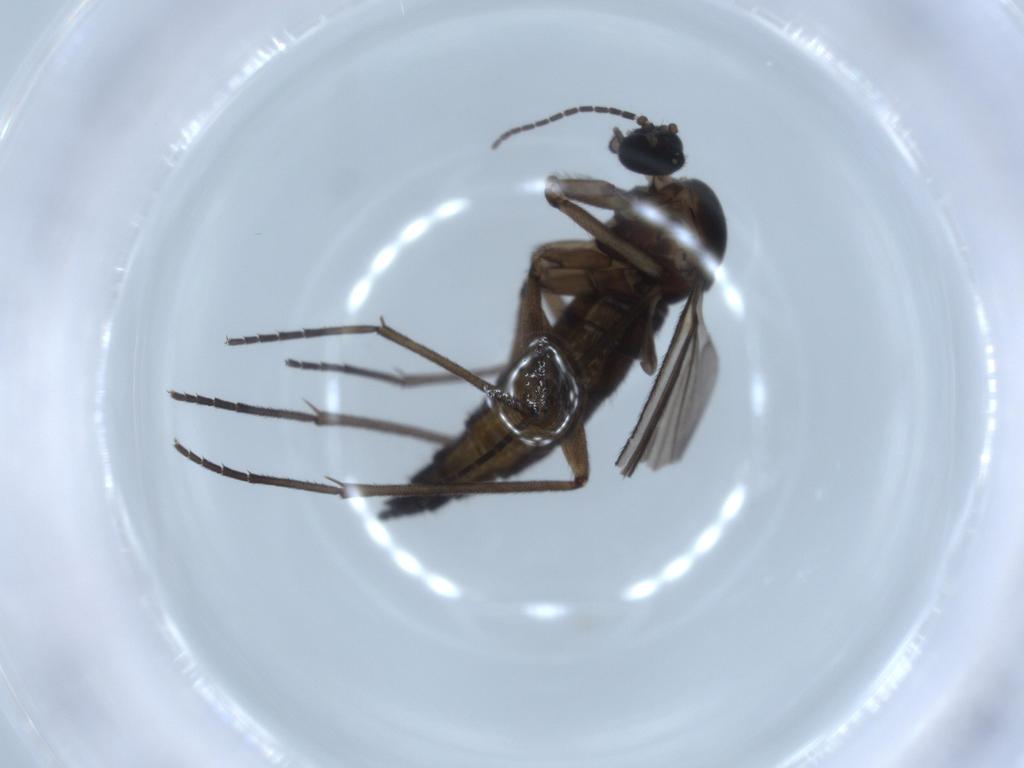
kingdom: Animalia
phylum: Arthropoda
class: Insecta
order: Diptera
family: Sciaridae
